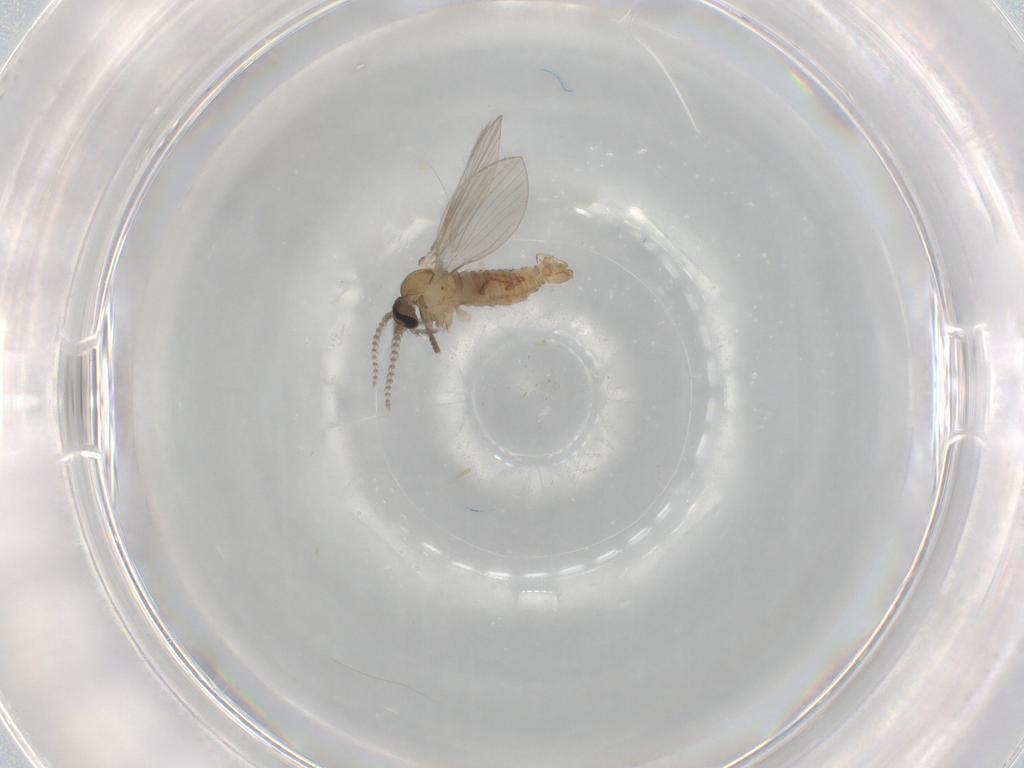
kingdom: Animalia
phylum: Arthropoda
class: Insecta
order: Diptera
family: Psychodidae
